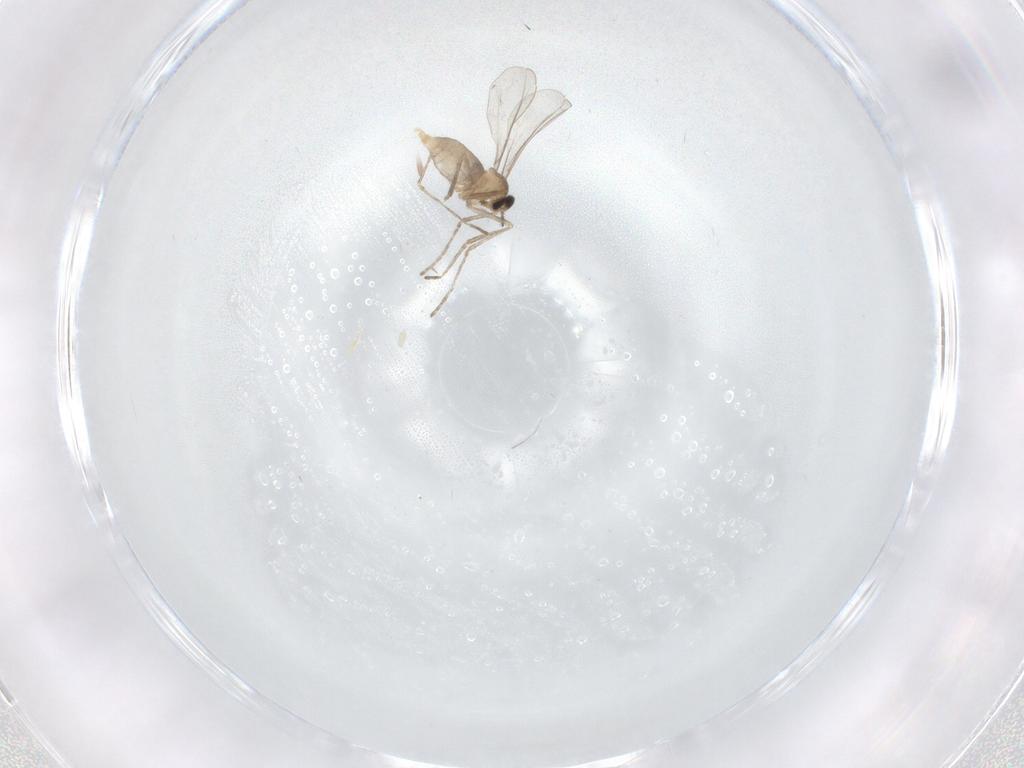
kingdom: Animalia
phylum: Arthropoda
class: Insecta
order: Diptera
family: Cecidomyiidae
